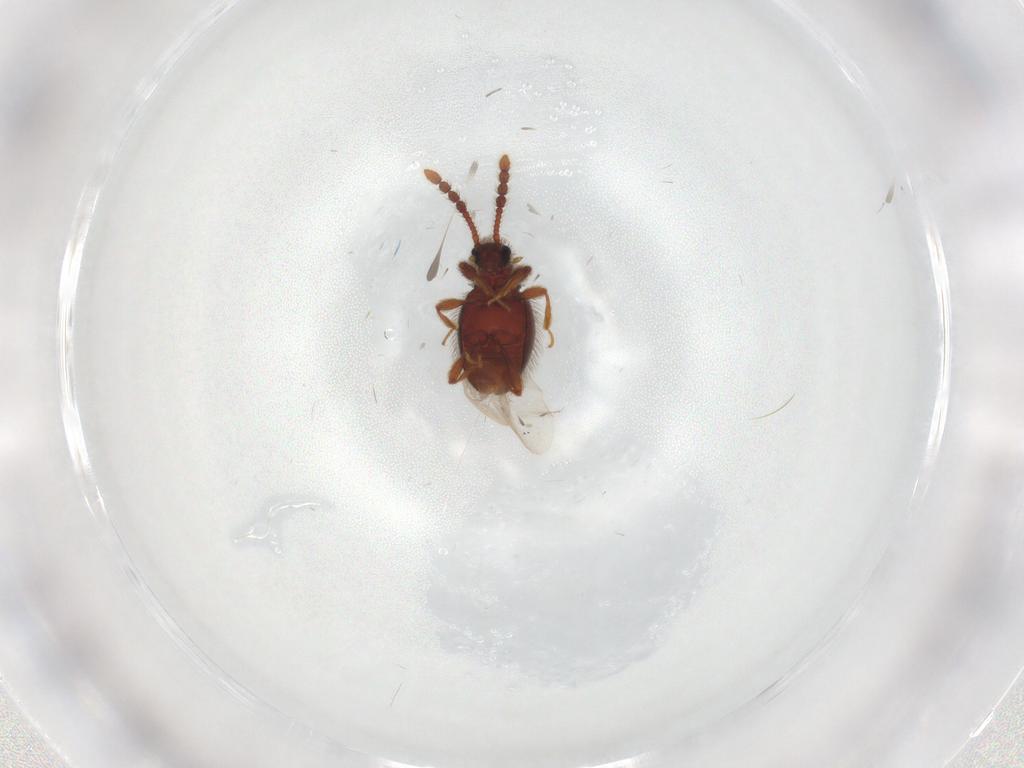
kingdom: Animalia
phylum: Arthropoda
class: Insecta
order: Coleoptera
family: Staphylinidae
